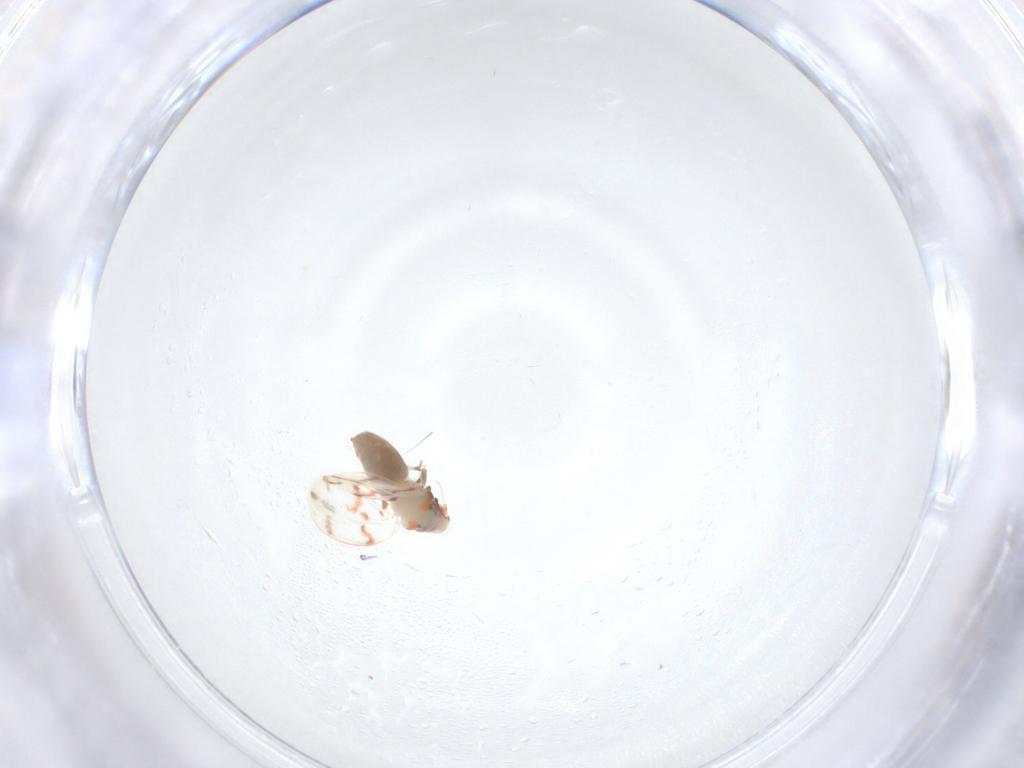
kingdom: Animalia
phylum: Arthropoda
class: Insecta
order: Hemiptera
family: Aleyrodidae
